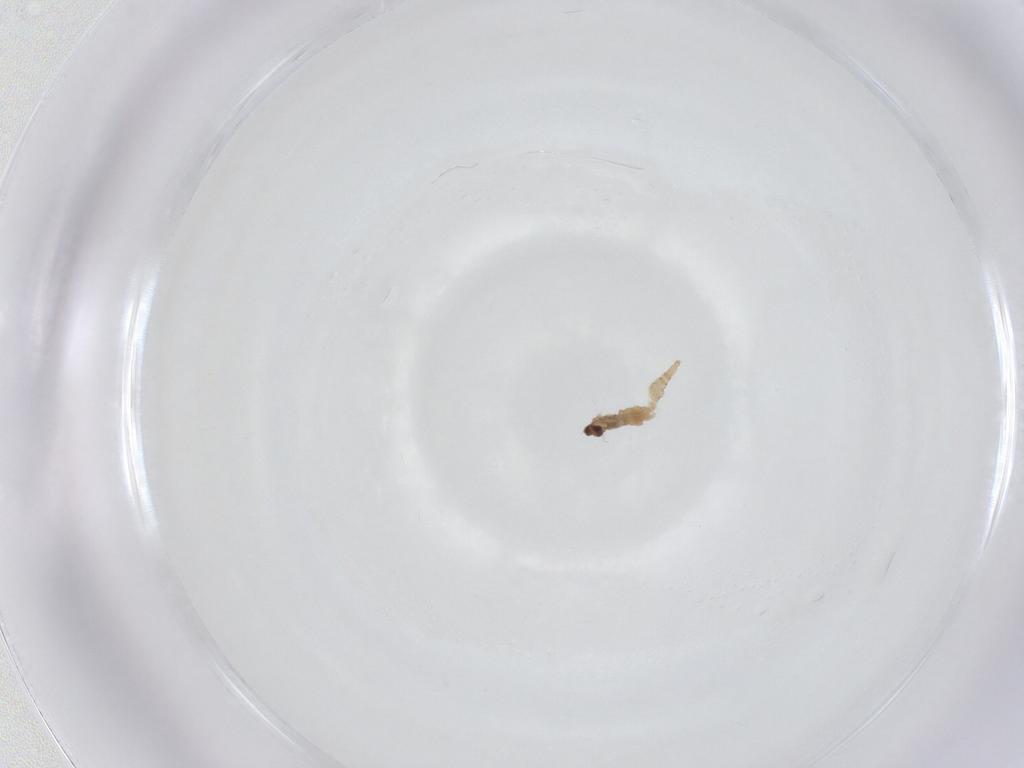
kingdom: Animalia
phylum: Arthropoda
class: Insecta
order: Diptera
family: Cecidomyiidae
